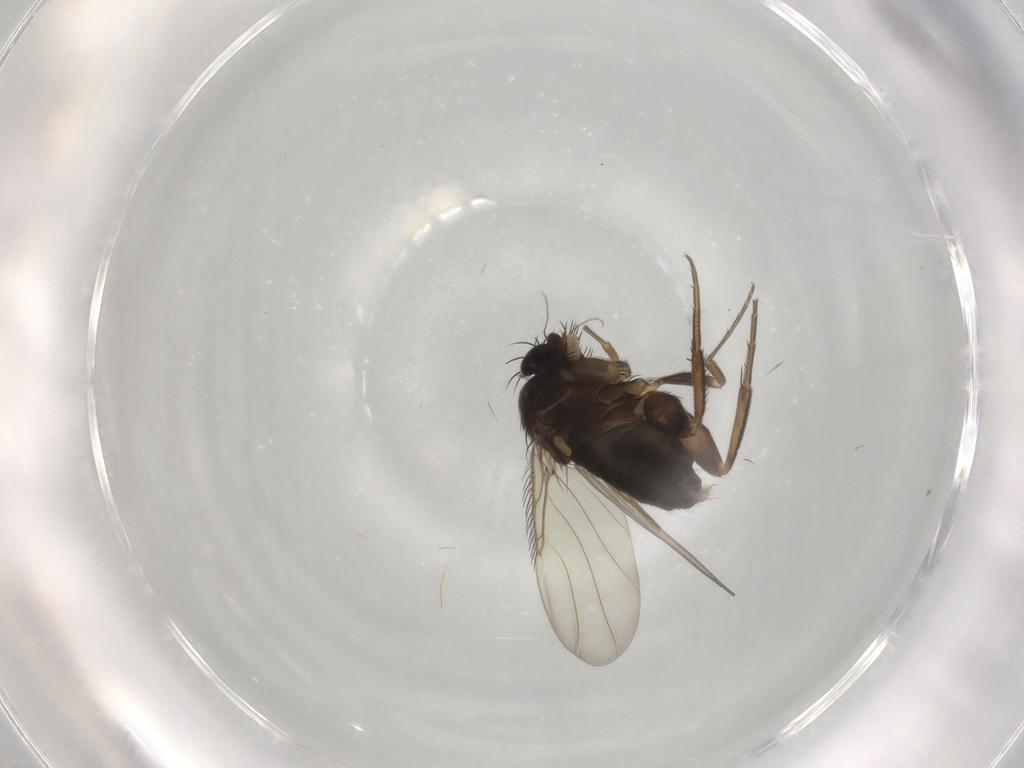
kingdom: Animalia
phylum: Arthropoda
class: Insecta
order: Diptera
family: Phoridae
